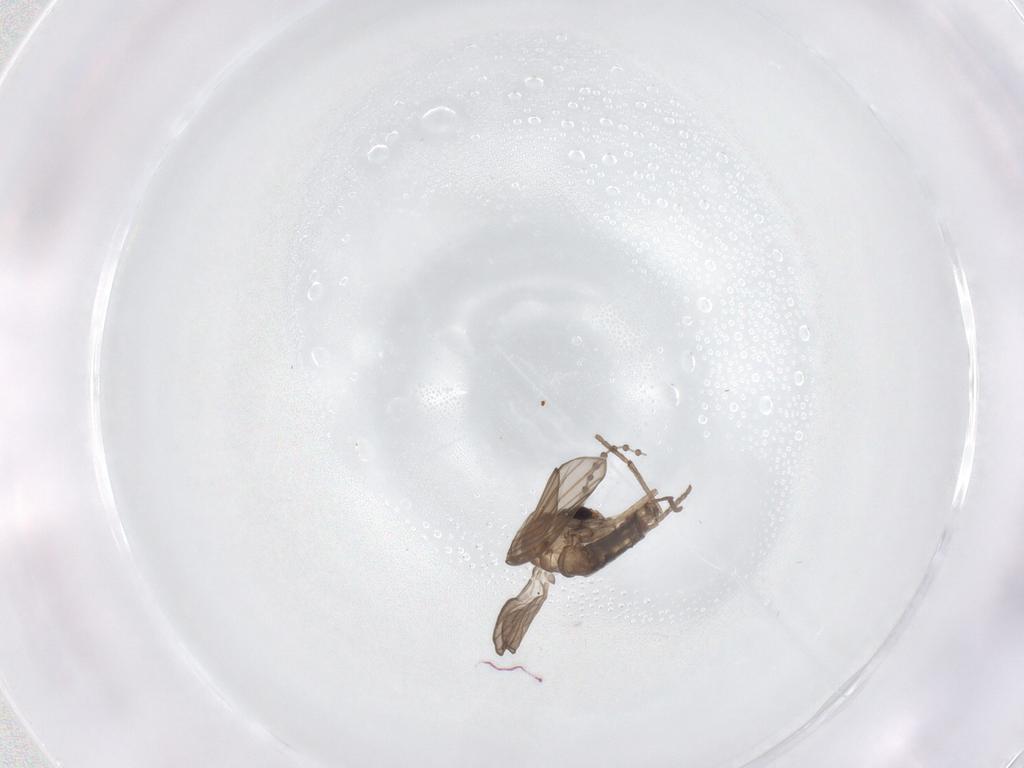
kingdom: Animalia
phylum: Arthropoda
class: Insecta
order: Diptera
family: Psychodidae
